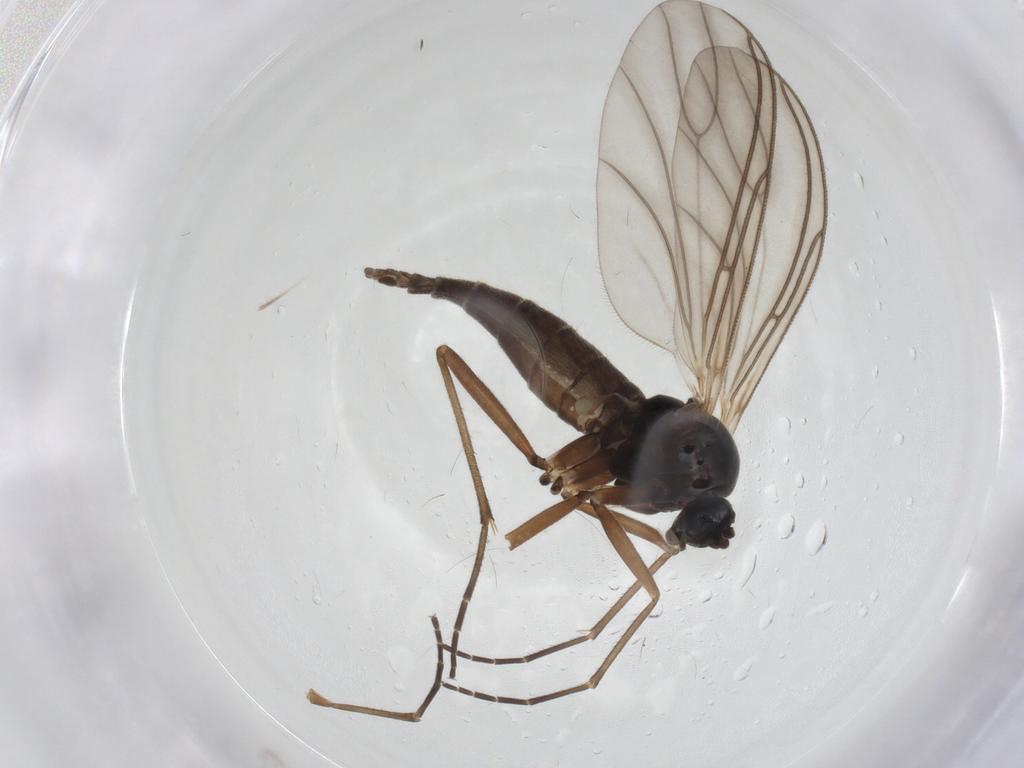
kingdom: Animalia
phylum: Arthropoda
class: Insecta
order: Diptera
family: Sciaridae
